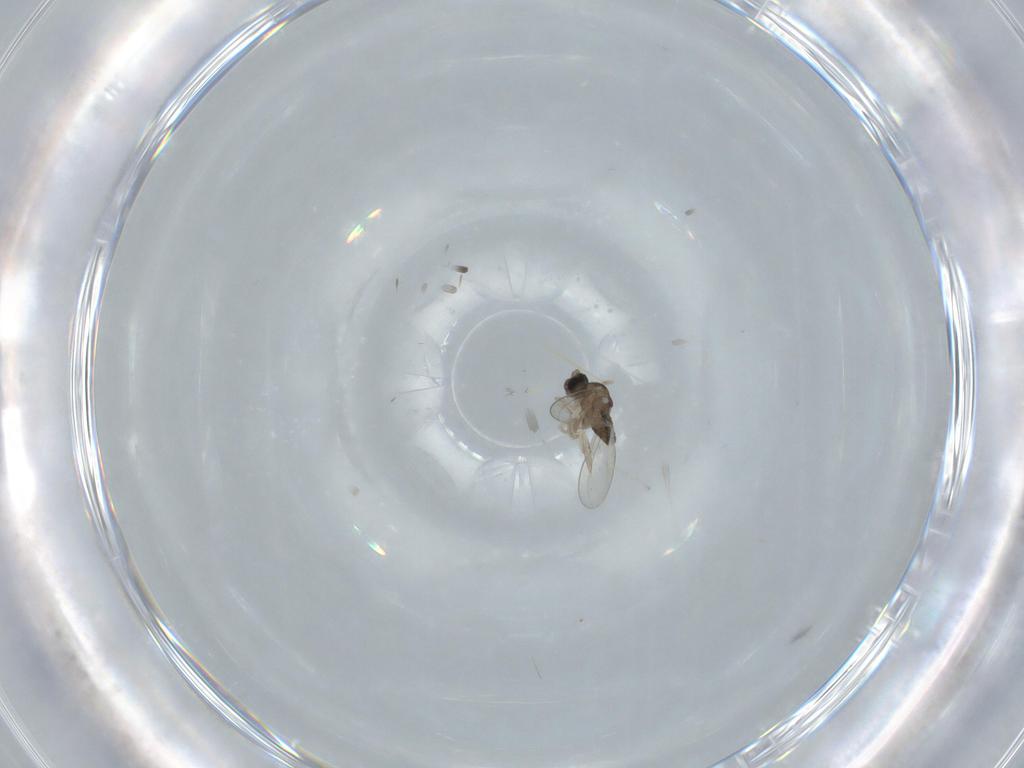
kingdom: Animalia
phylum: Arthropoda
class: Insecta
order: Diptera
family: Cecidomyiidae
